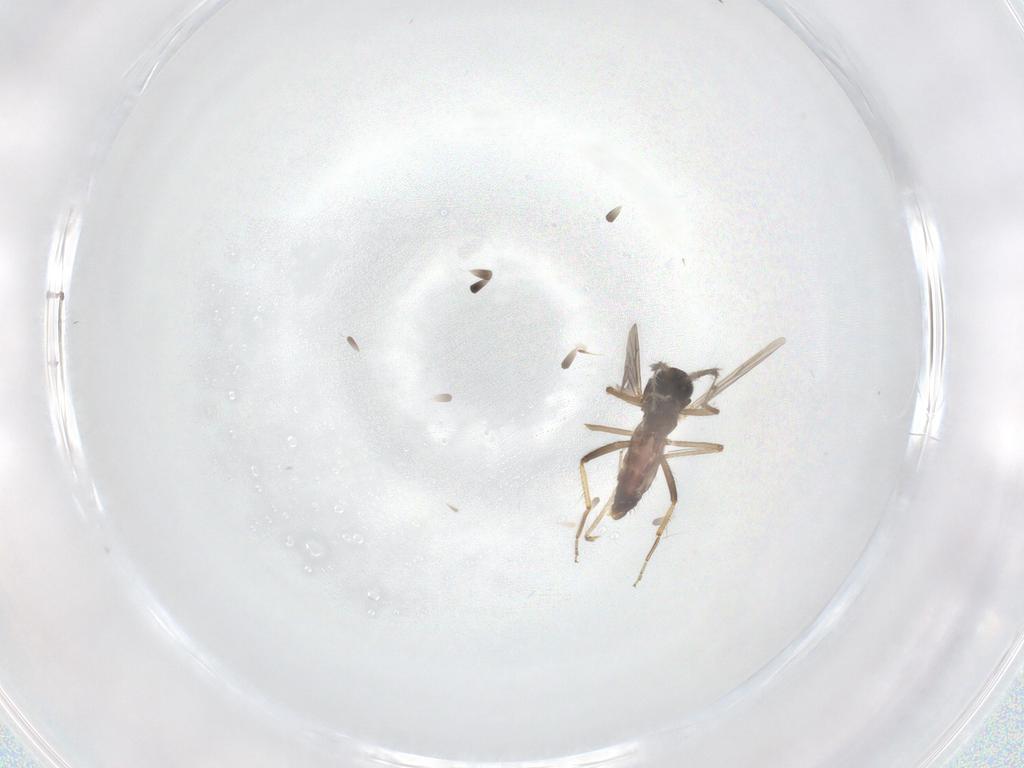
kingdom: Animalia
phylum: Arthropoda
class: Insecta
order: Diptera
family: Ceratopogonidae
